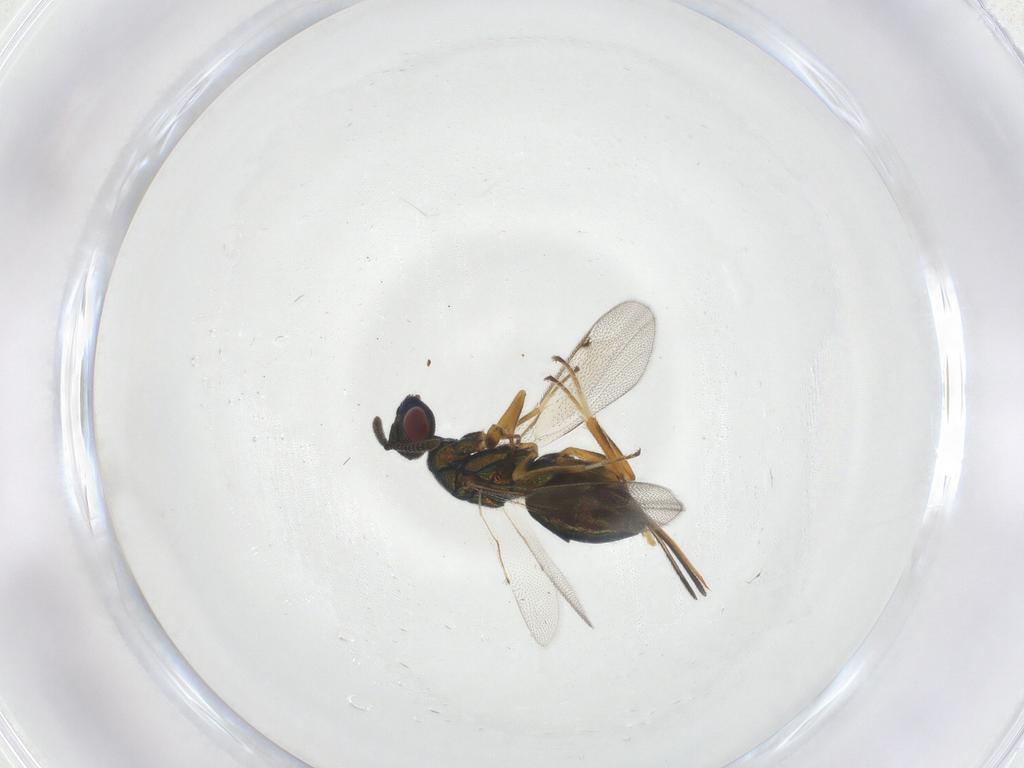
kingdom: Animalia
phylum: Arthropoda
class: Insecta
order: Hymenoptera
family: Torymidae
